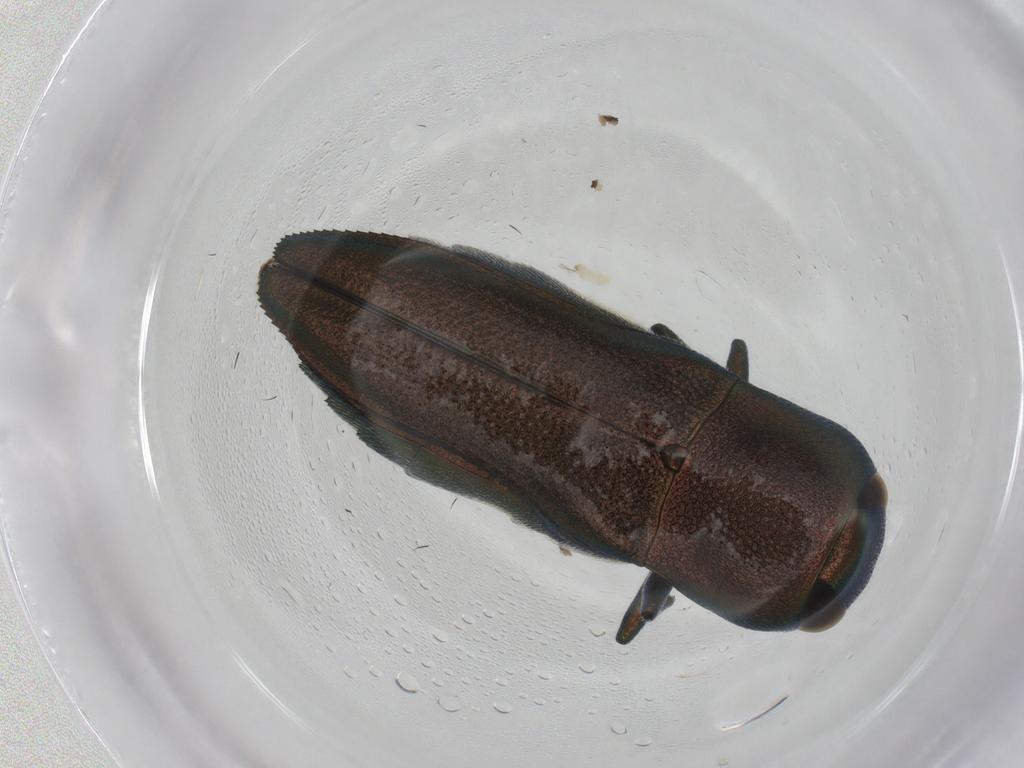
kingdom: Animalia
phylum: Arthropoda
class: Insecta
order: Coleoptera
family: Buprestidae
